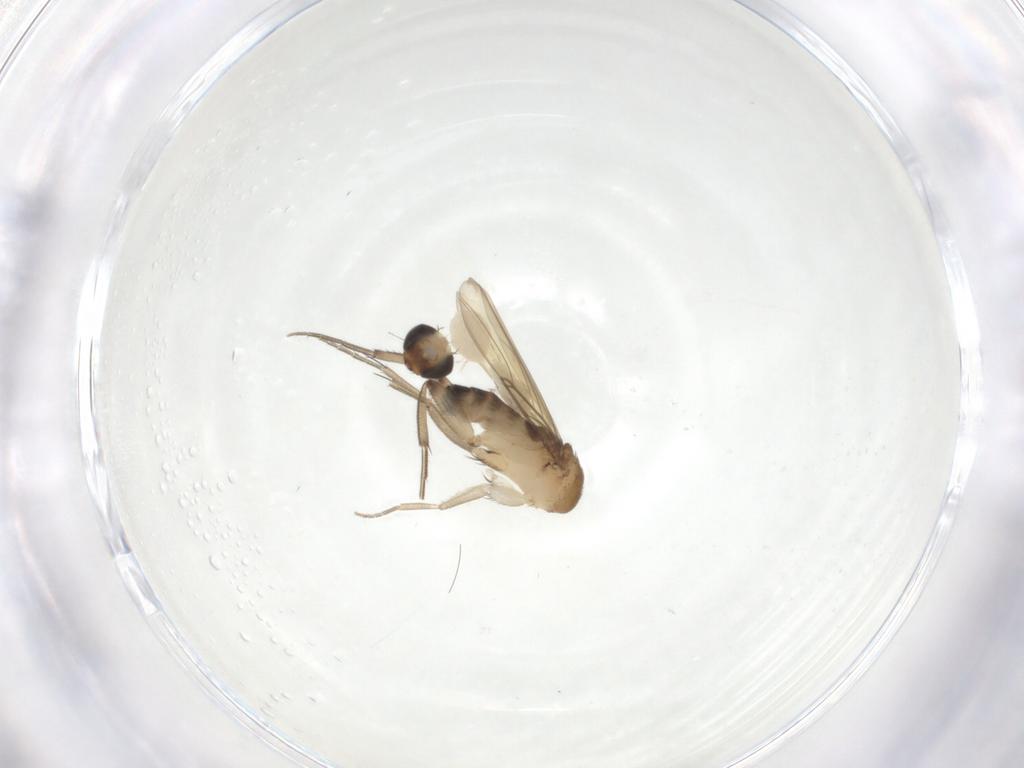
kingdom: Animalia
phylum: Arthropoda
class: Insecta
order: Diptera
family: Phoridae
